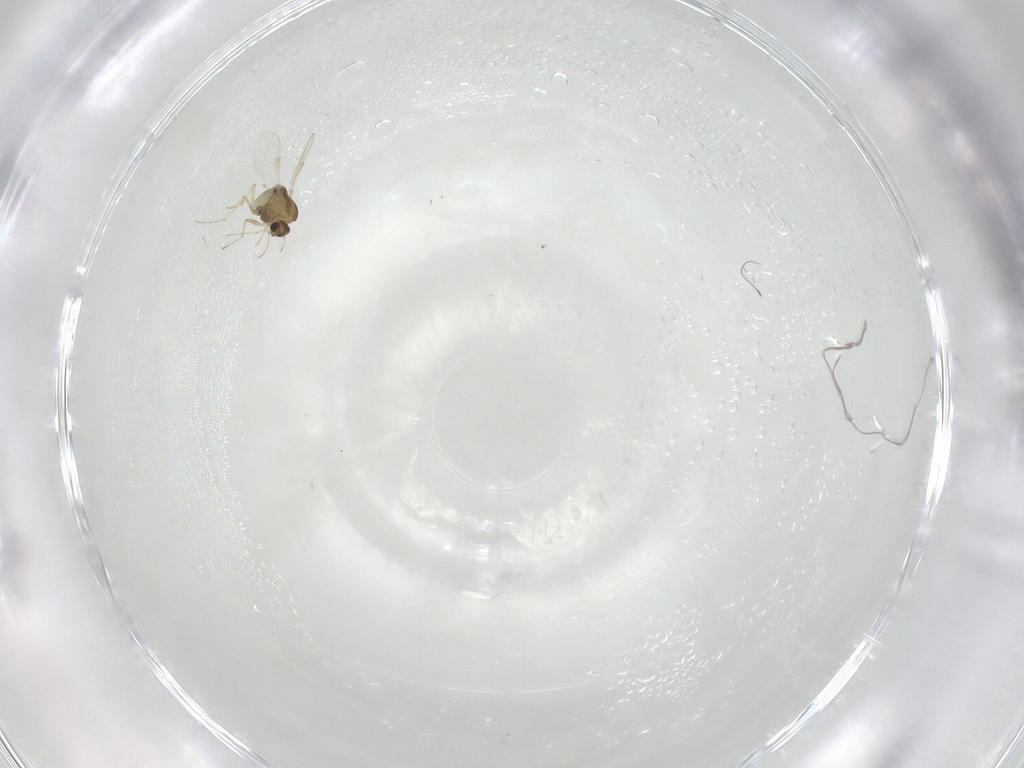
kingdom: Animalia
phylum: Arthropoda
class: Insecta
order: Diptera
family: Chironomidae
